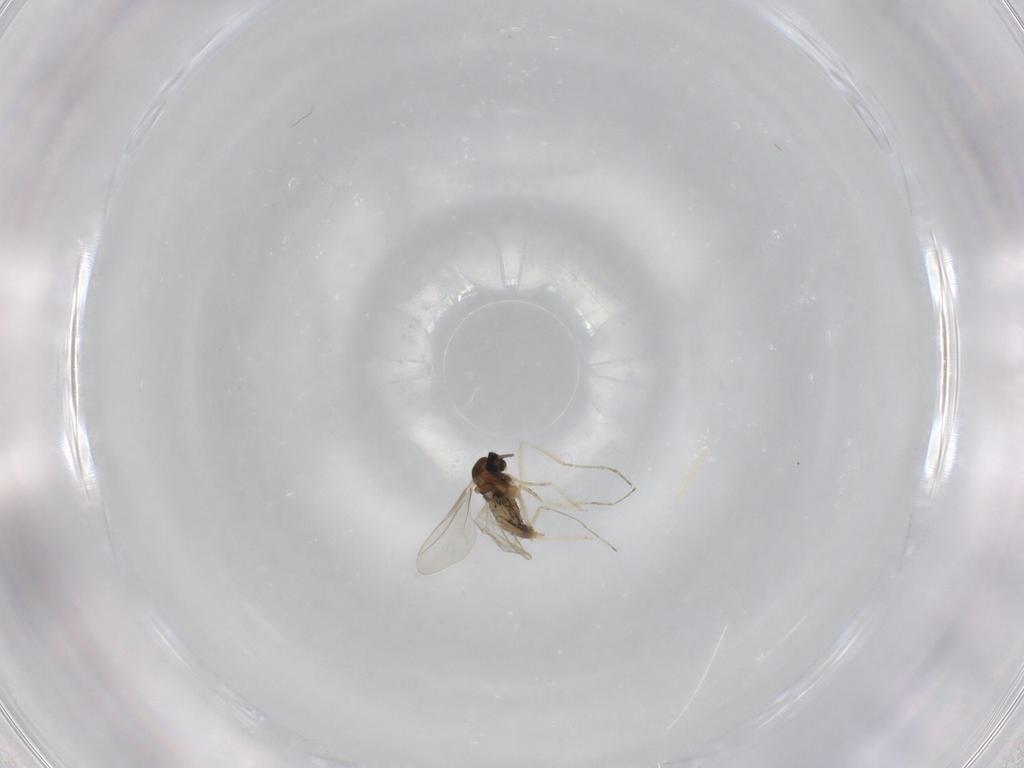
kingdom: Animalia
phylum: Arthropoda
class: Insecta
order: Diptera
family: Cecidomyiidae
